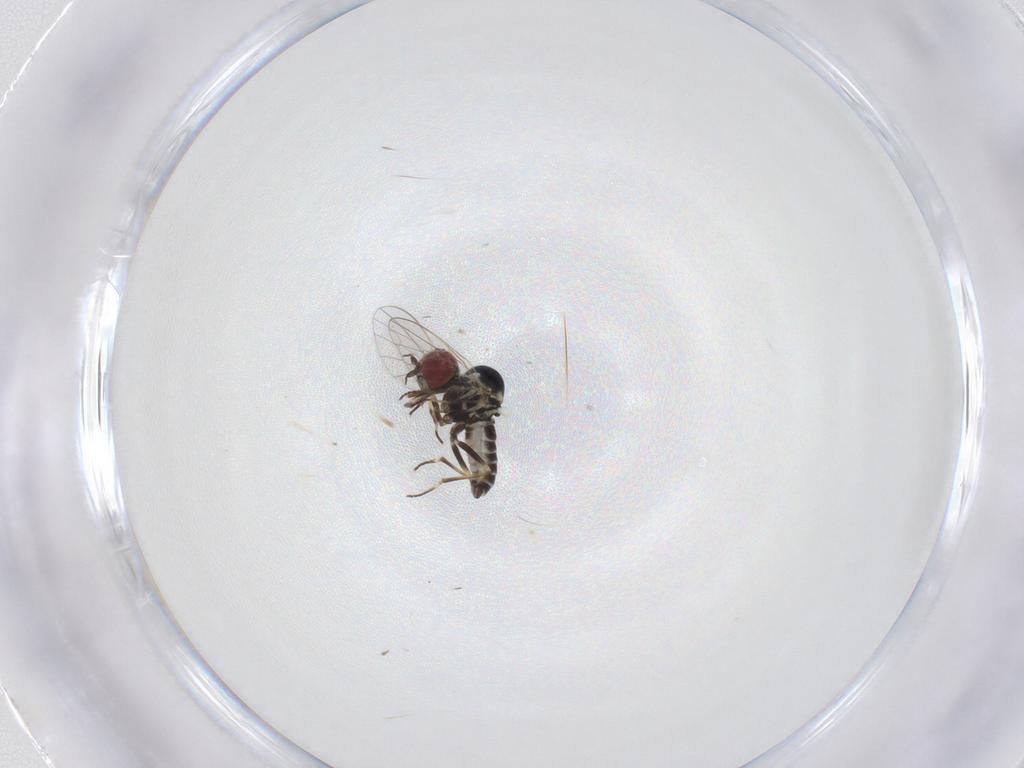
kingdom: Animalia
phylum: Arthropoda
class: Insecta
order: Diptera
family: Mythicomyiidae
